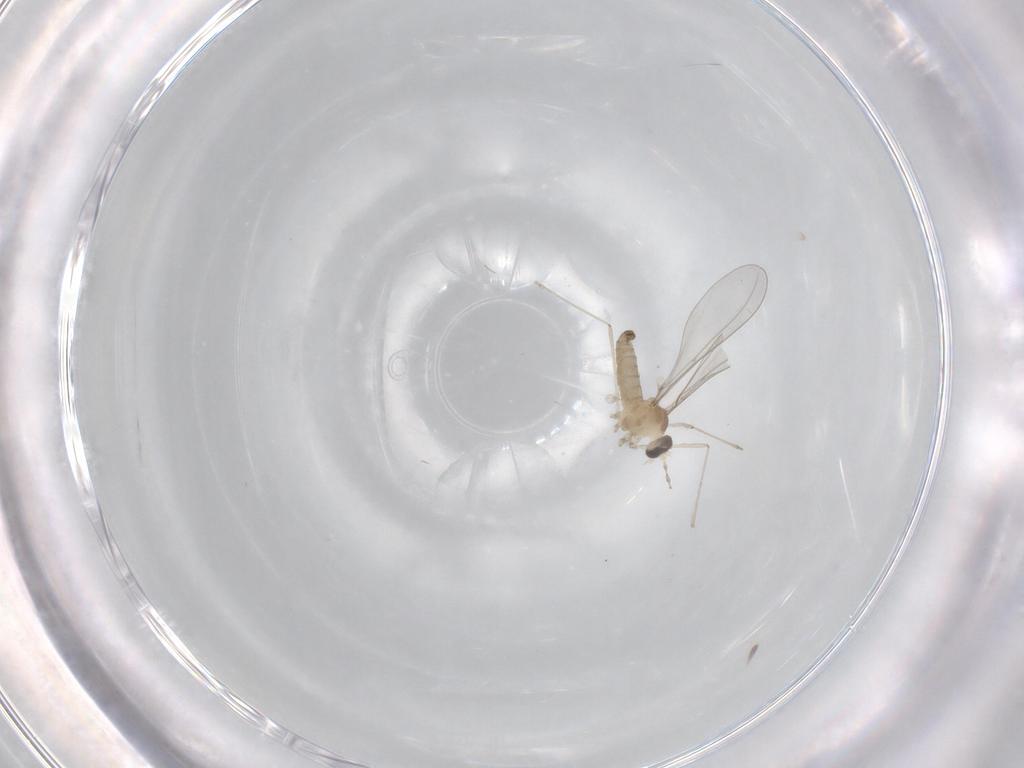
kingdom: Animalia
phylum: Arthropoda
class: Insecta
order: Diptera
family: Cecidomyiidae
